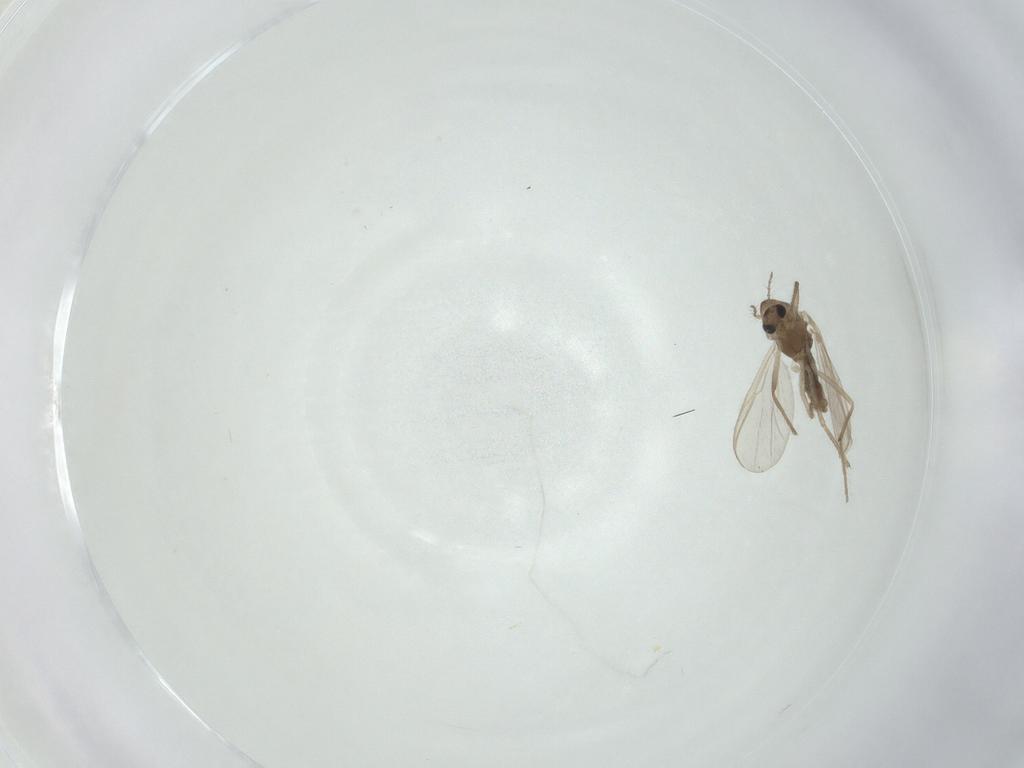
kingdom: Animalia
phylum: Arthropoda
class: Insecta
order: Diptera
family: Chironomidae
